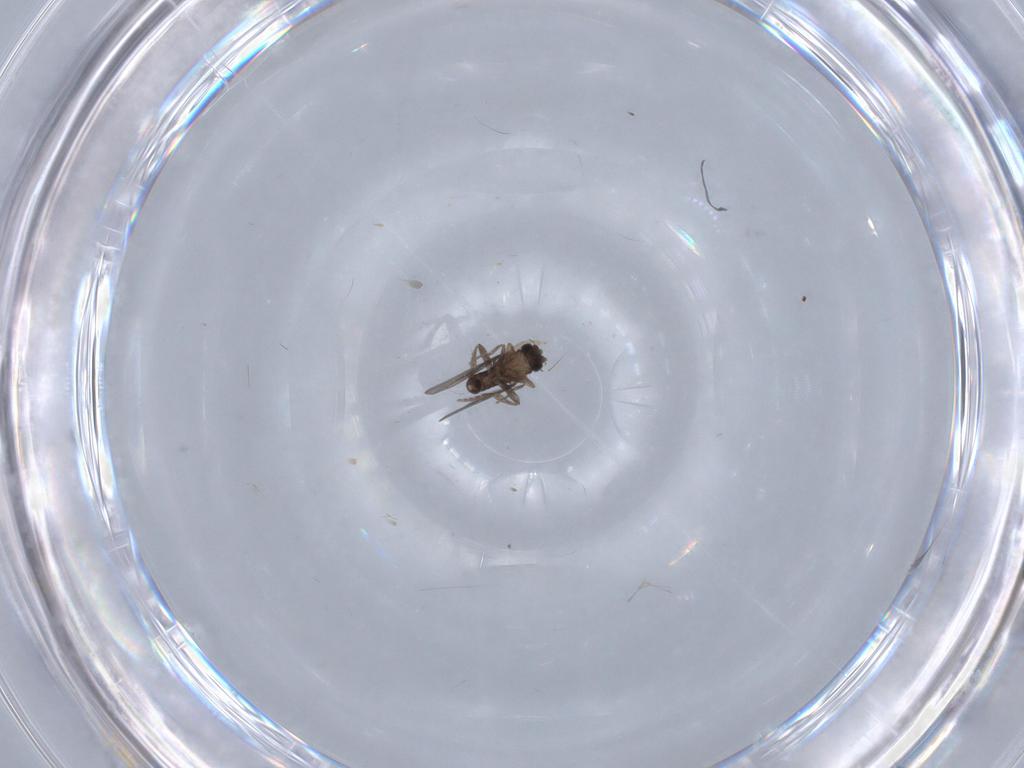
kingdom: Animalia
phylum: Arthropoda
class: Insecta
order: Diptera
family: Chironomidae
